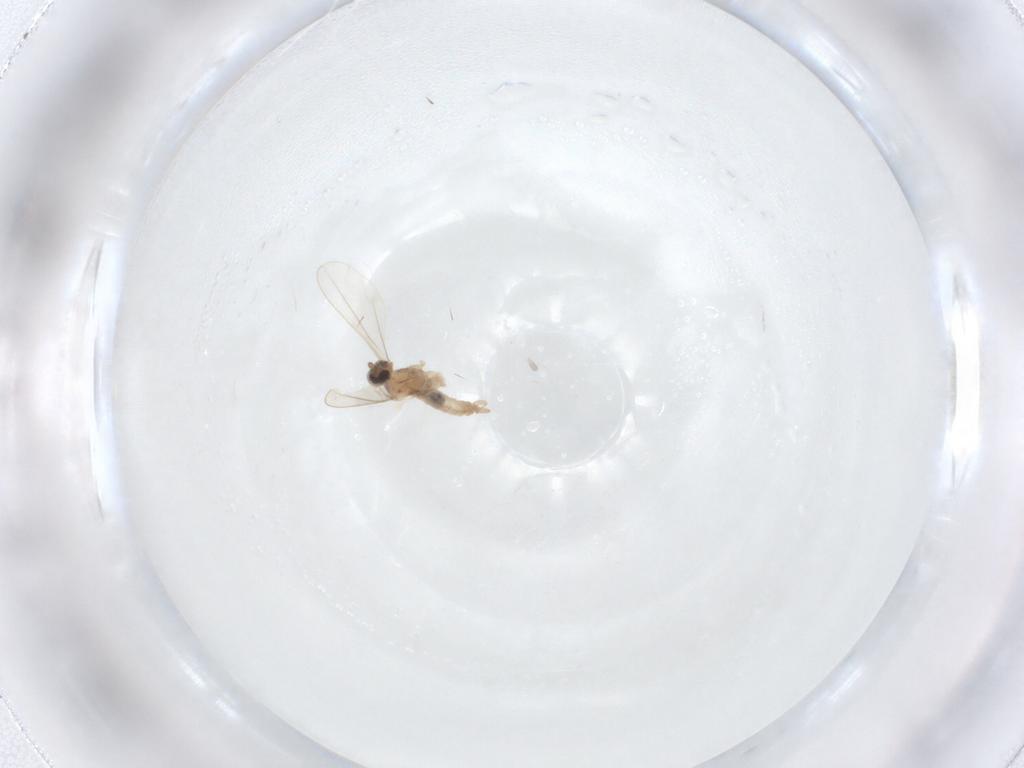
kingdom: Animalia
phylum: Arthropoda
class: Insecta
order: Diptera
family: Cecidomyiidae
